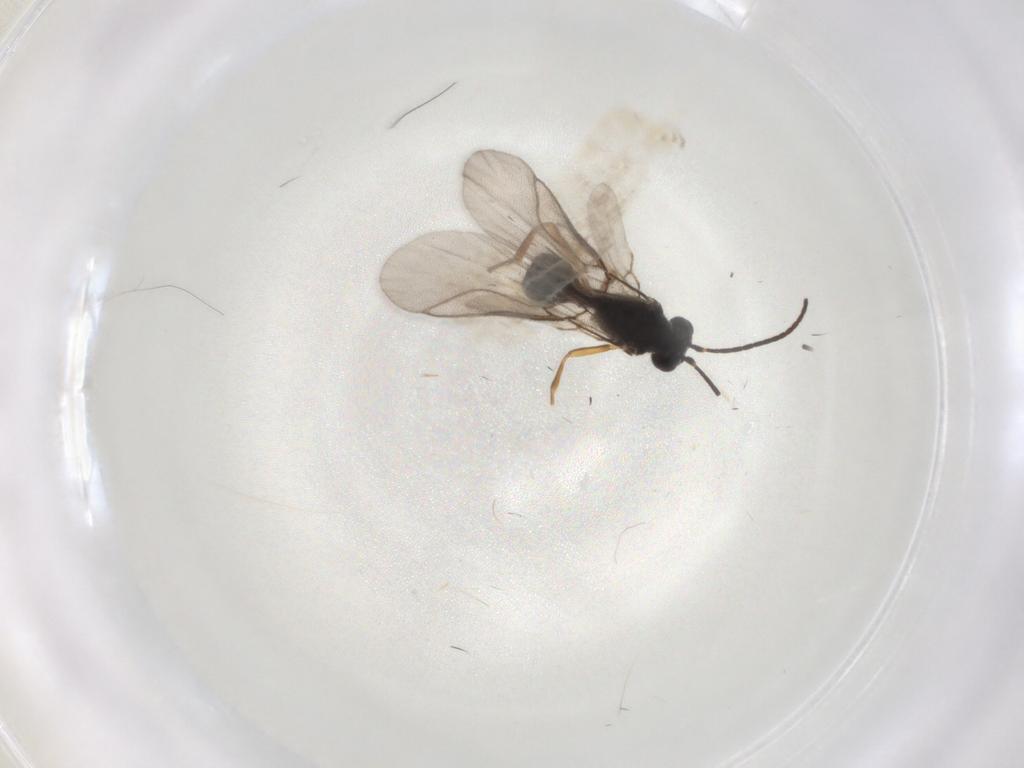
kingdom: Animalia
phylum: Arthropoda
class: Insecta
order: Hymenoptera
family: Braconidae
